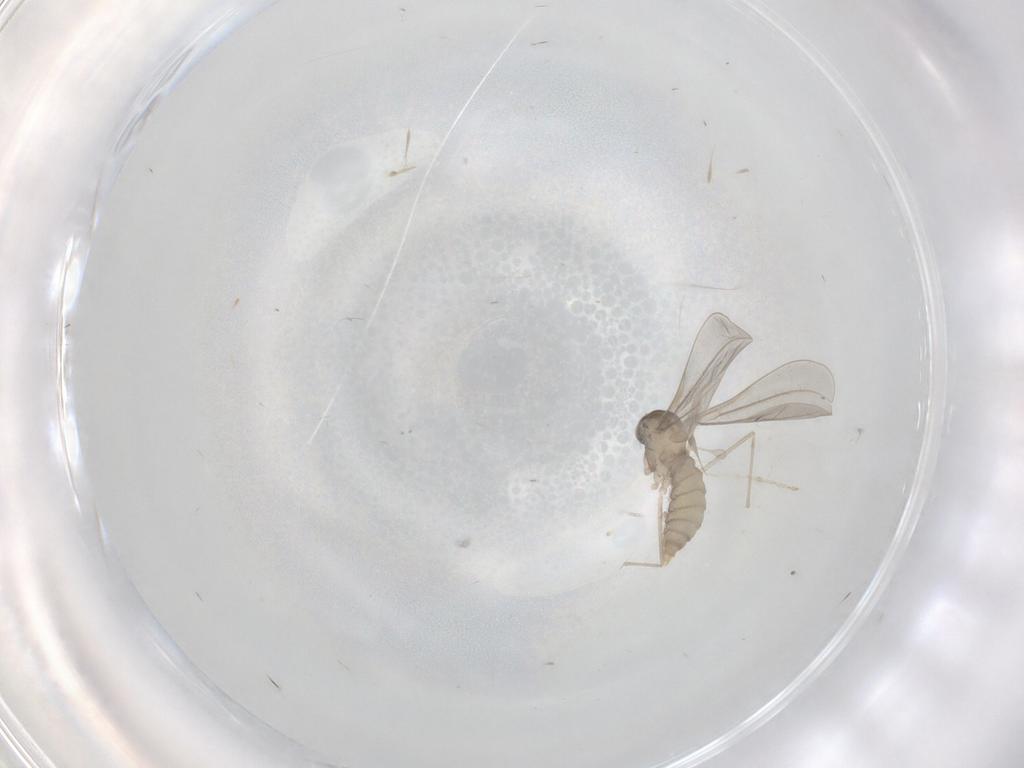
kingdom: Animalia
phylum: Arthropoda
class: Insecta
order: Diptera
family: Cecidomyiidae
